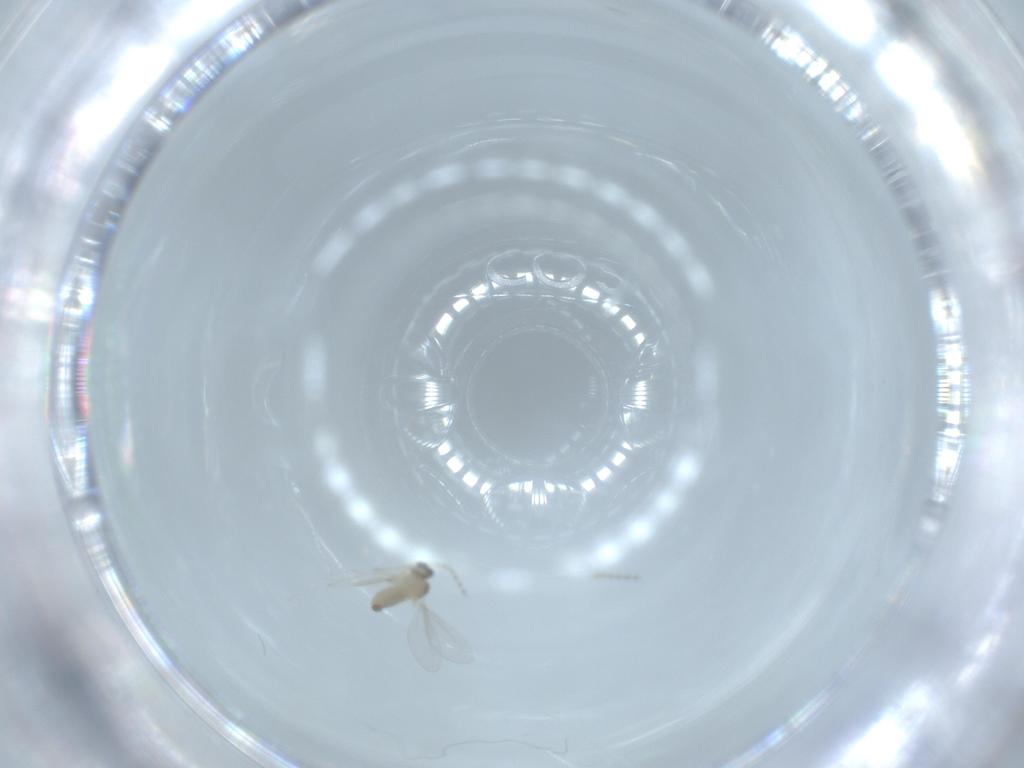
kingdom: Animalia
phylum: Arthropoda
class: Insecta
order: Diptera
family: Cecidomyiidae
